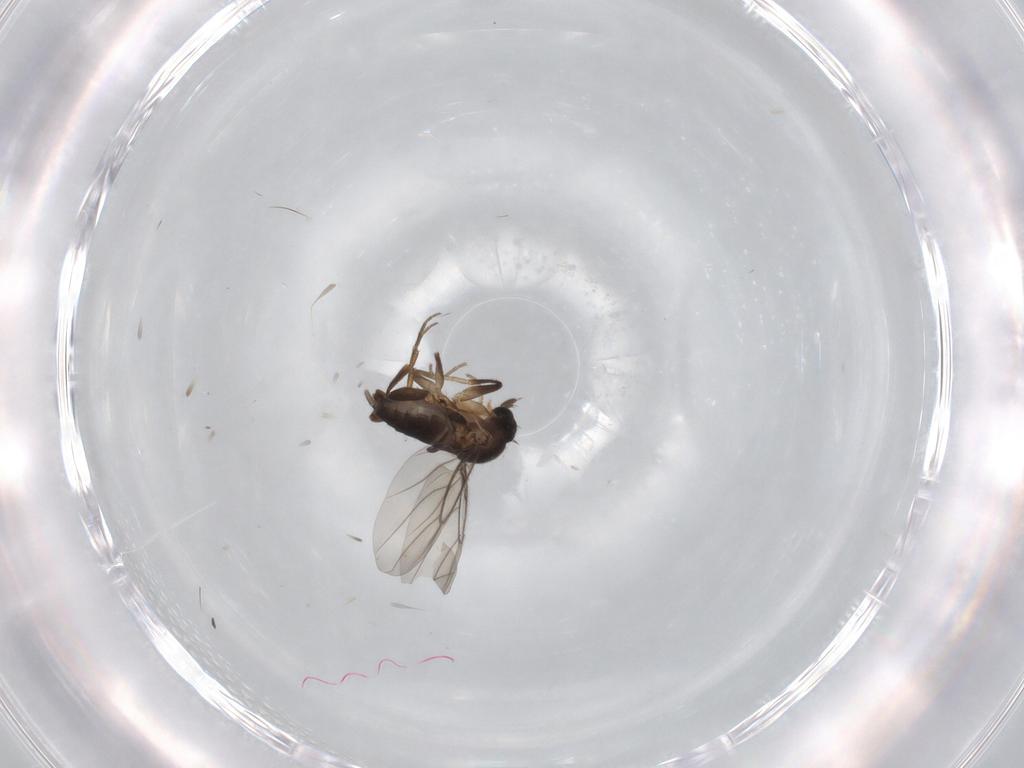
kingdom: Animalia
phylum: Arthropoda
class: Insecta
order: Diptera
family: Phoridae
